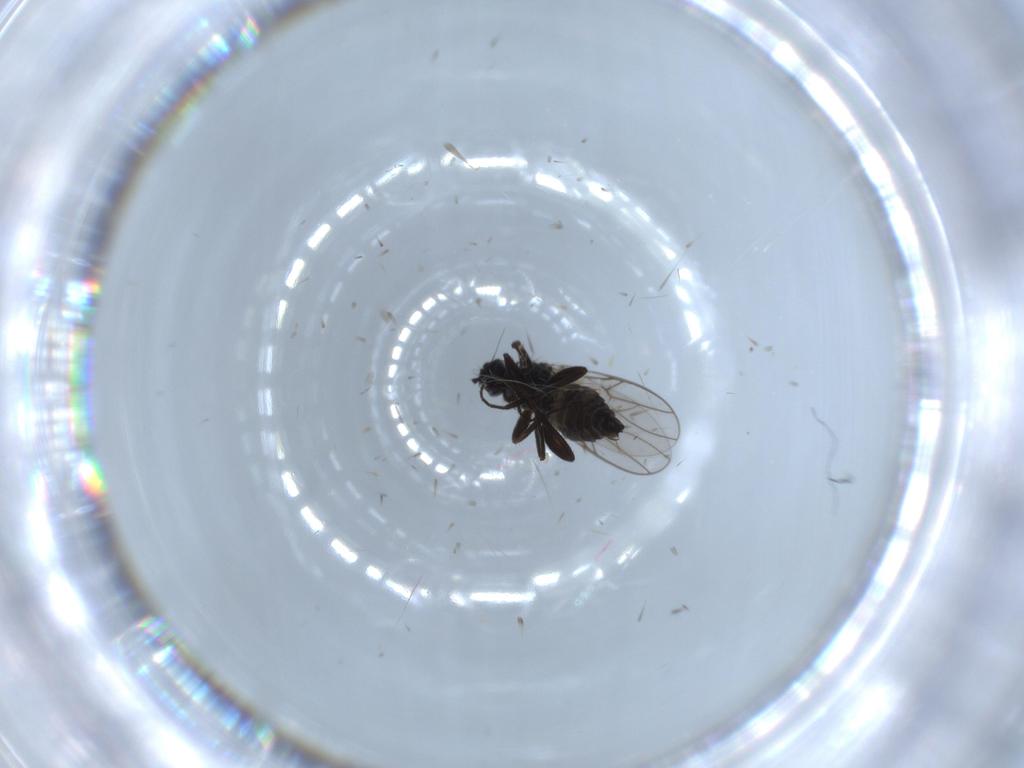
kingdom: Animalia
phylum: Arthropoda
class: Insecta
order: Diptera
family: Hybotidae
